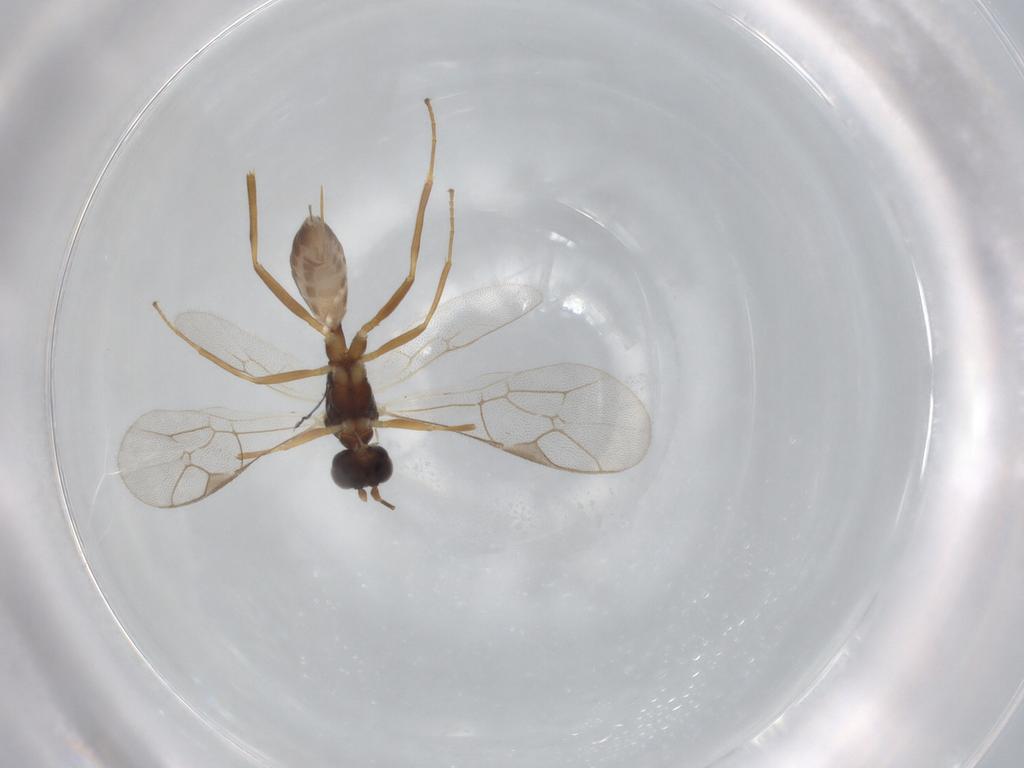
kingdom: Animalia
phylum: Arthropoda
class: Insecta
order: Hymenoptera
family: Ichneumonidae
